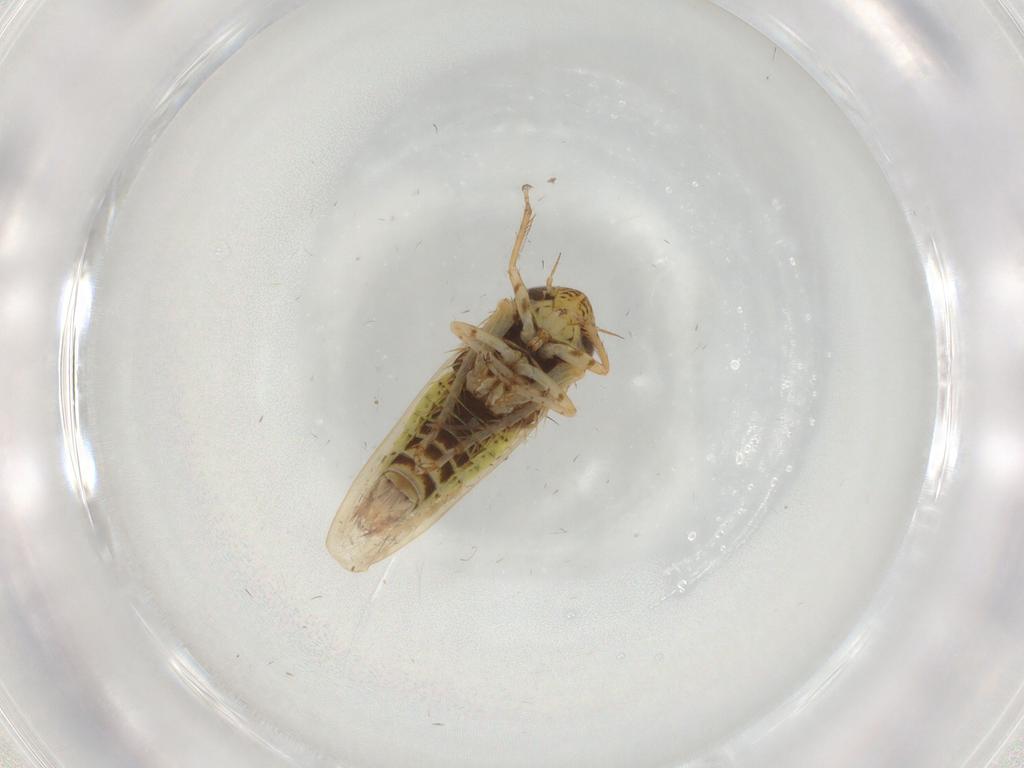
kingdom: Animalia
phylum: Arthropoda
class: Insecta
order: Hemiptera
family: Cicadellidae
